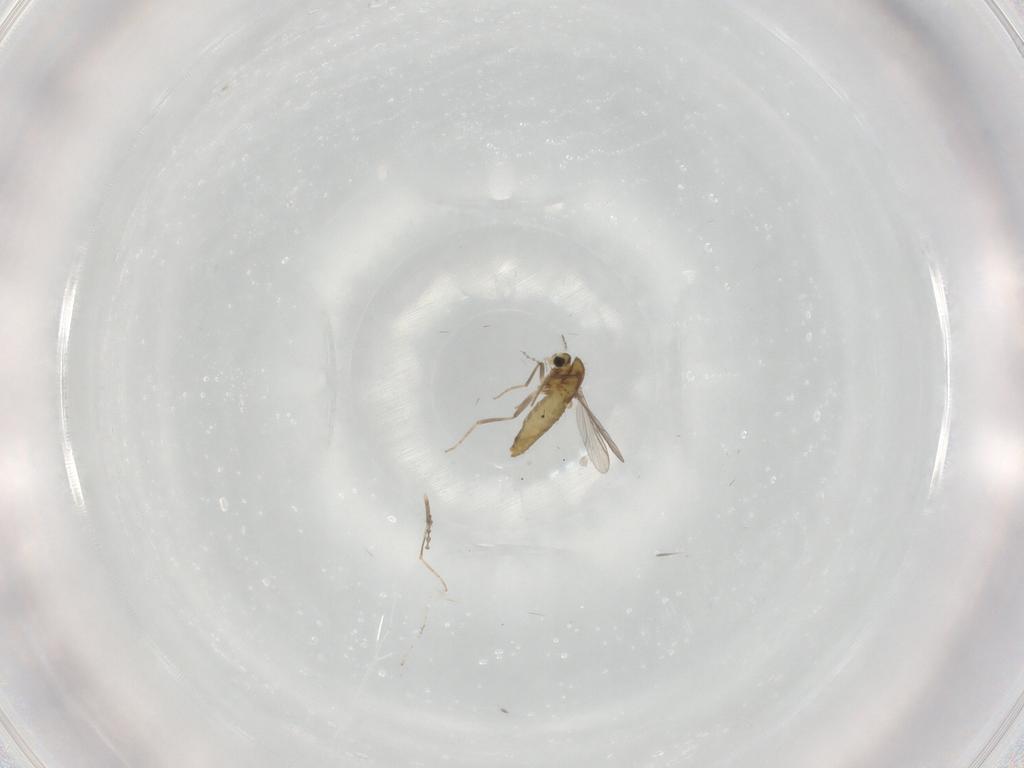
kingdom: Animalia
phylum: Arthropoda
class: Insecta
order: Diptera
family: Chironomidae
